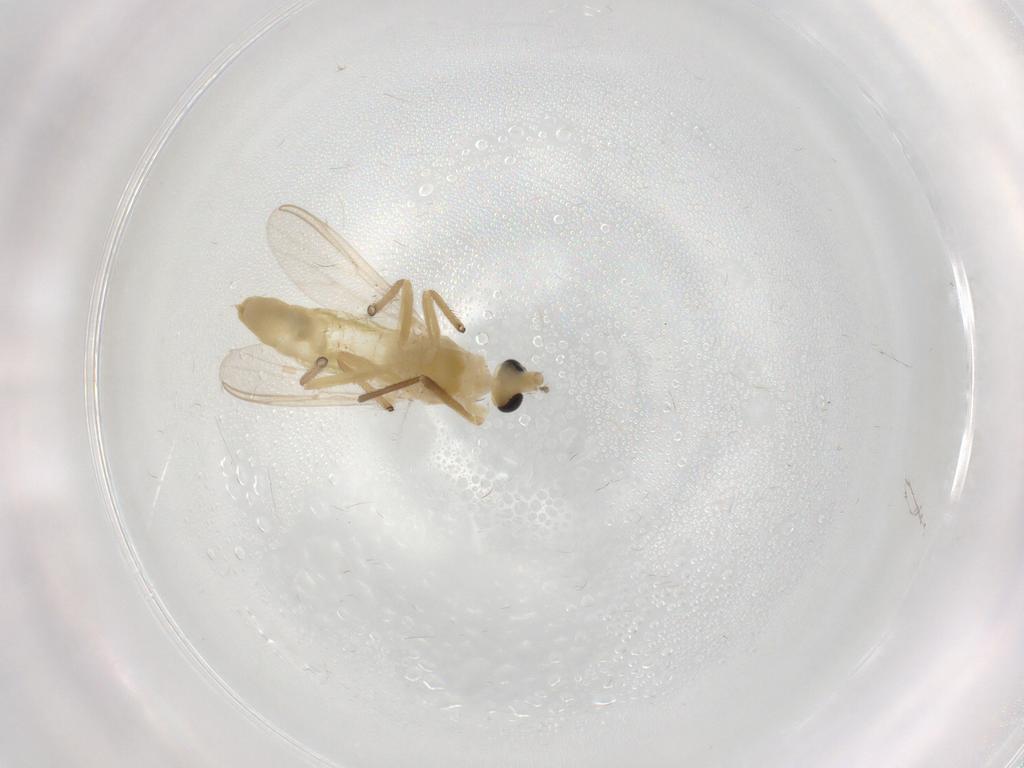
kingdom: Animalia
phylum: Arthropoda
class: Insecta
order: Diptera
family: Chironomidae
